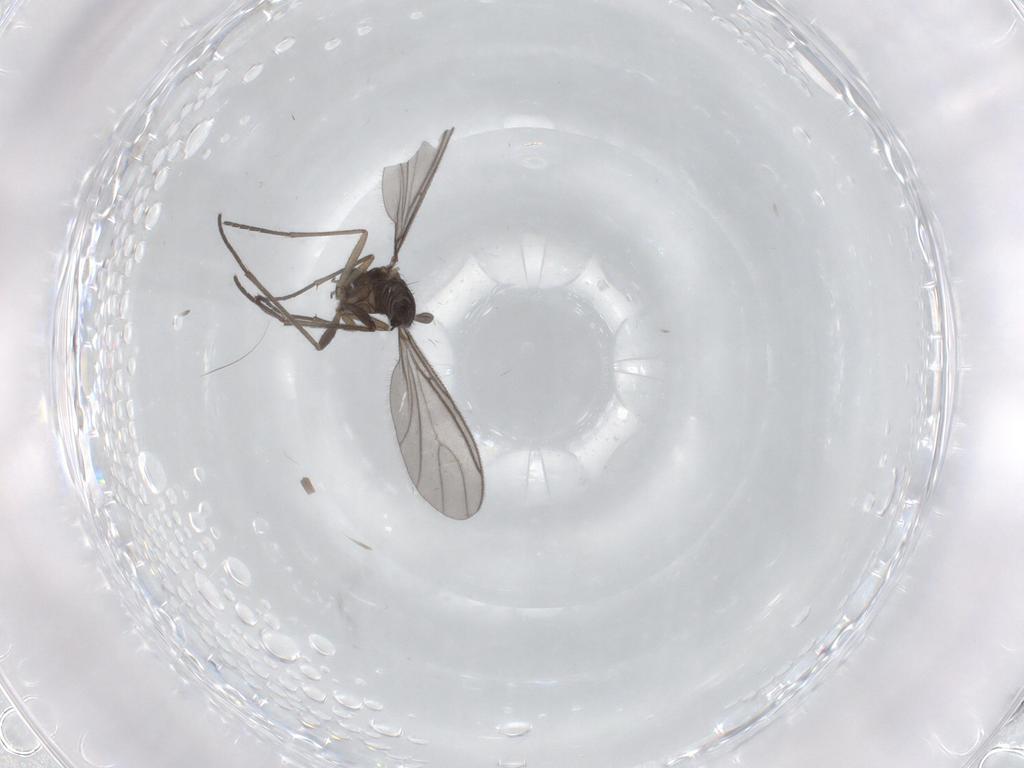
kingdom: Animalia
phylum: Arthropoda
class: Insecta
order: Diptera
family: Sciaridae
